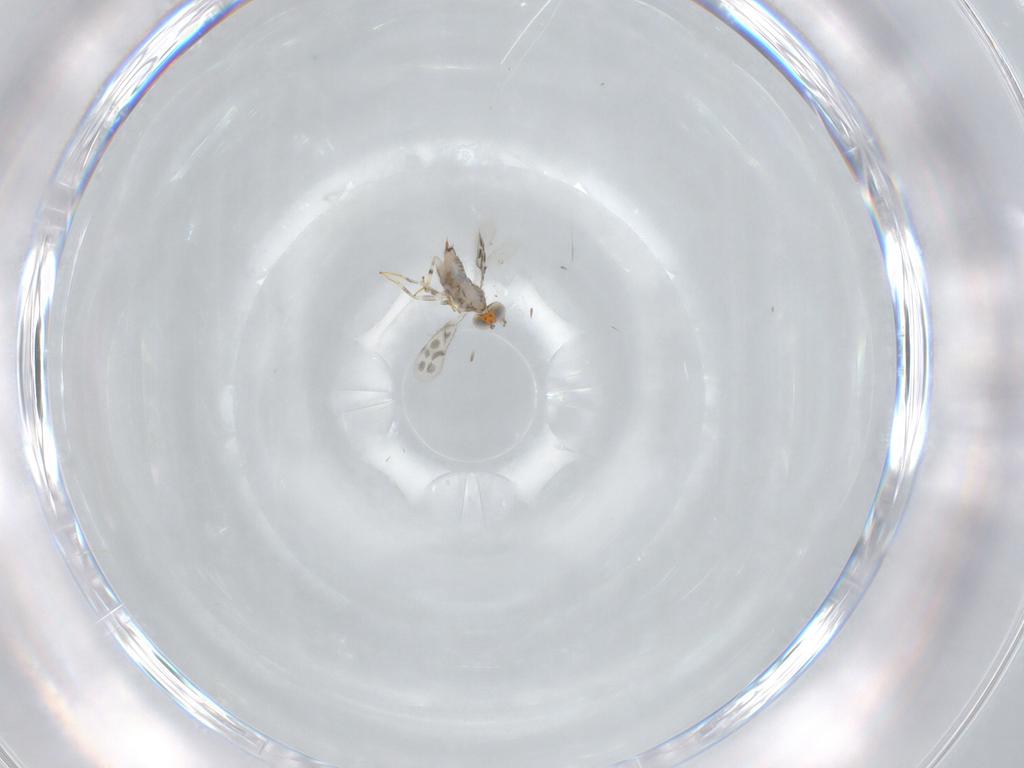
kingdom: Animalia
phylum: Arthropoda
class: Insecta
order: Hymenoptera
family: Aphelinidae
